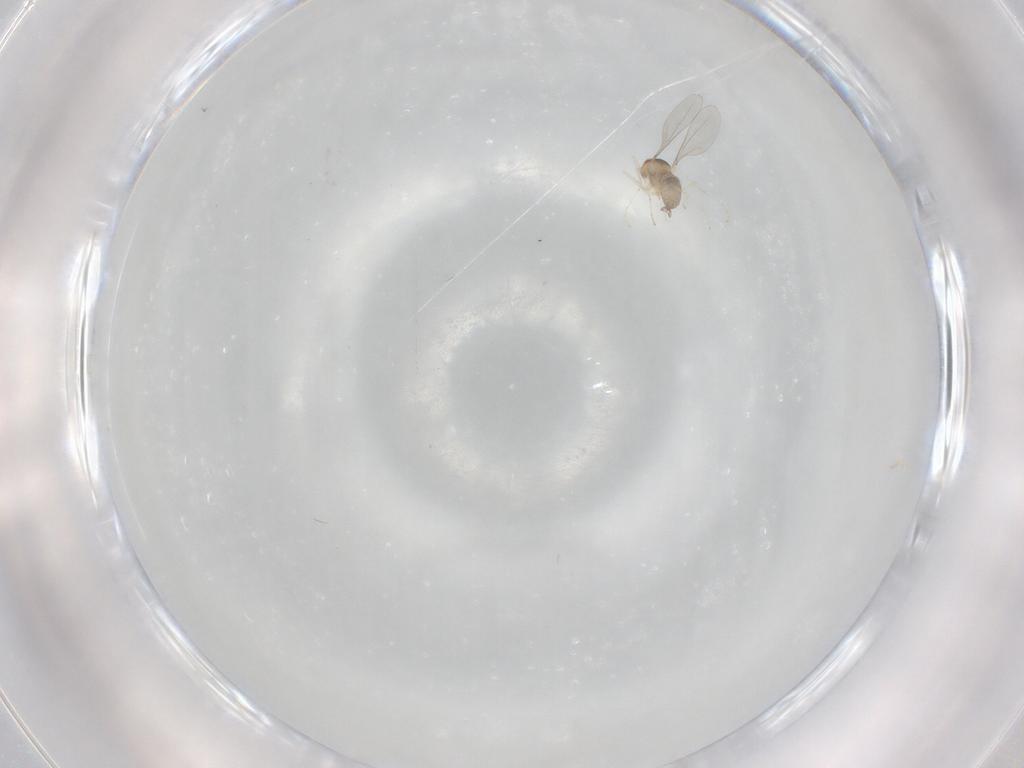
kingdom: Animalia
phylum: Arthropoda
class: Insecta
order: Diptera
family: Cecidomyiidae
